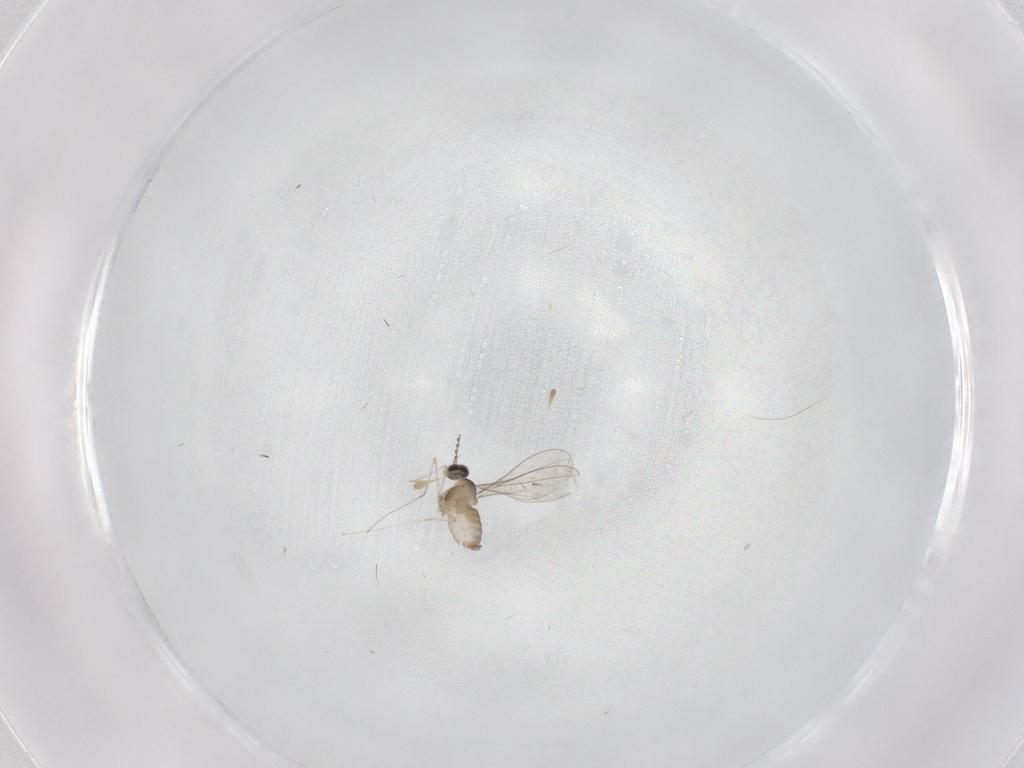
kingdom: Animalia
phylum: Arthropoda
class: Insecta
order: Diptera
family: Cecidomyiidae
